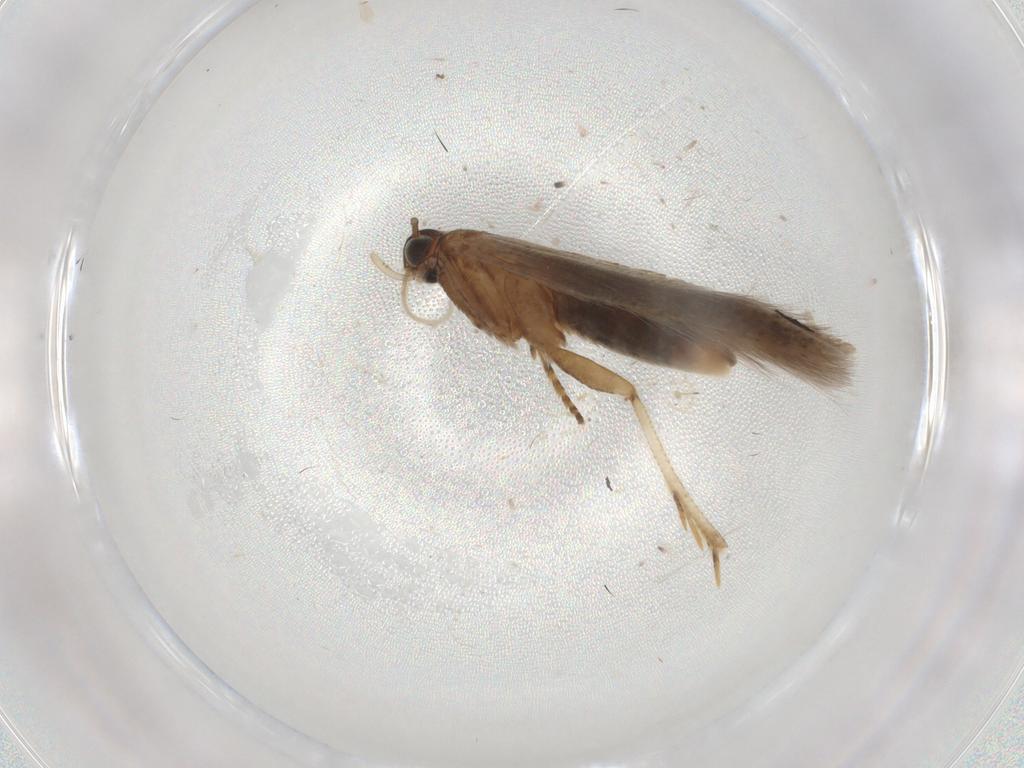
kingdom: Animalia
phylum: Arthropoda
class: Insecta
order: Lepidoptera
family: Gelechiidae
